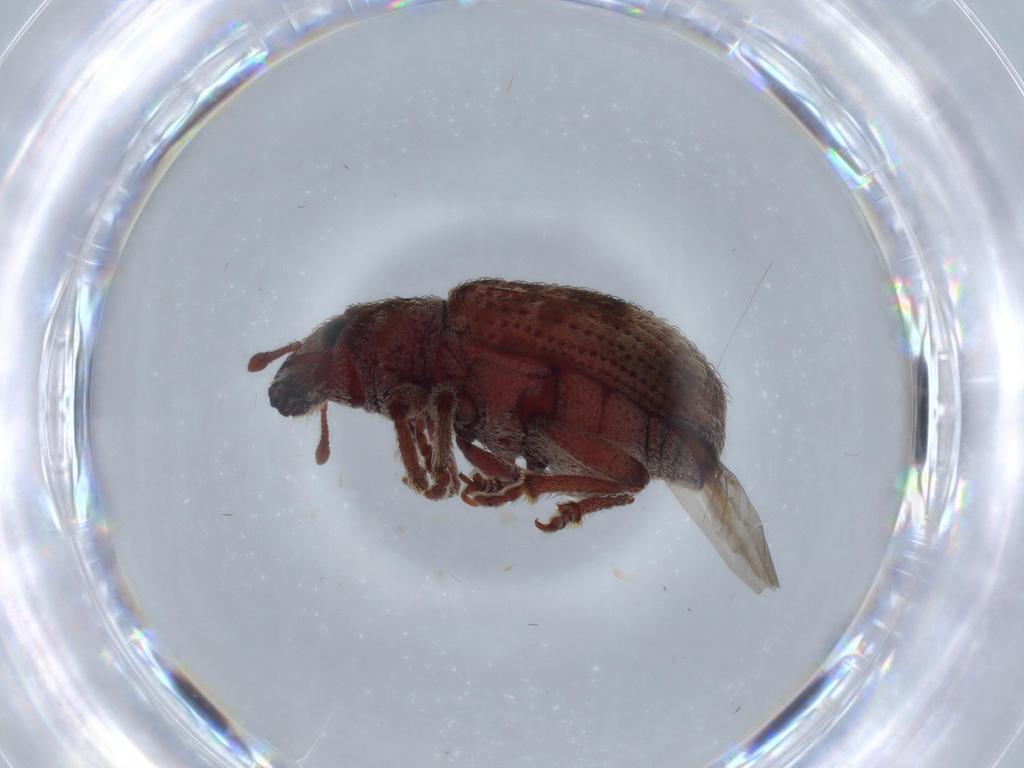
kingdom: Animalia
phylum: Arthropoda
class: Insecta
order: Coleoptera
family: Curculionidae
